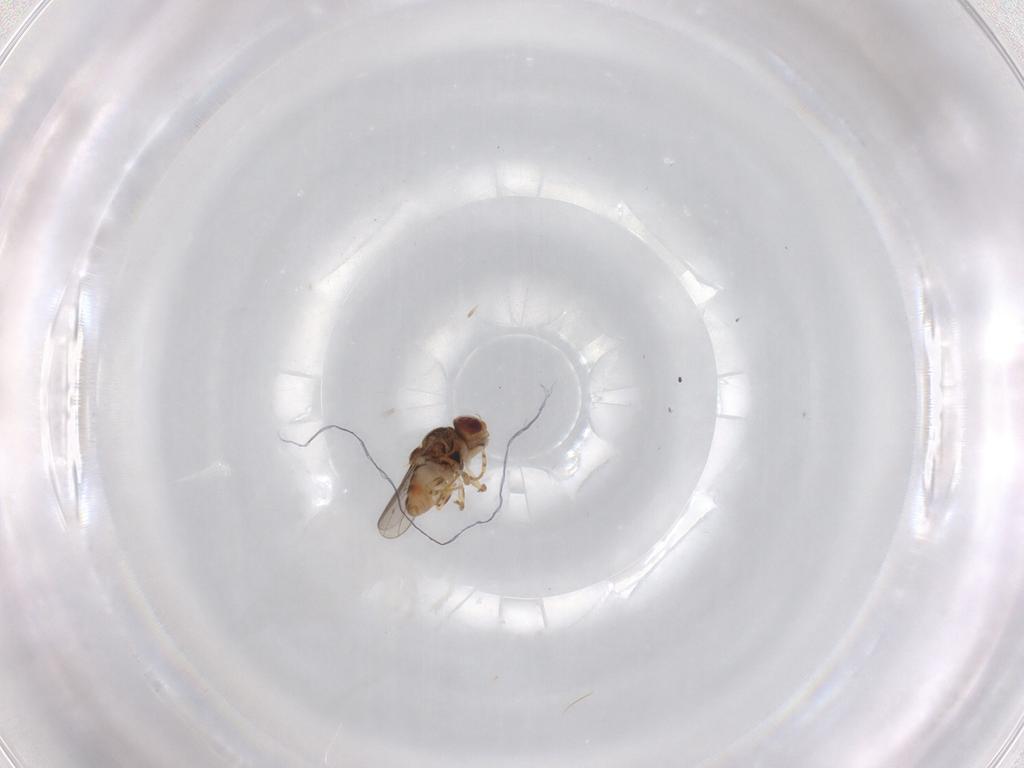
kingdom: Animalia
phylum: Arthropoda
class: Insecta
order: Diptera
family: Chloropidae
